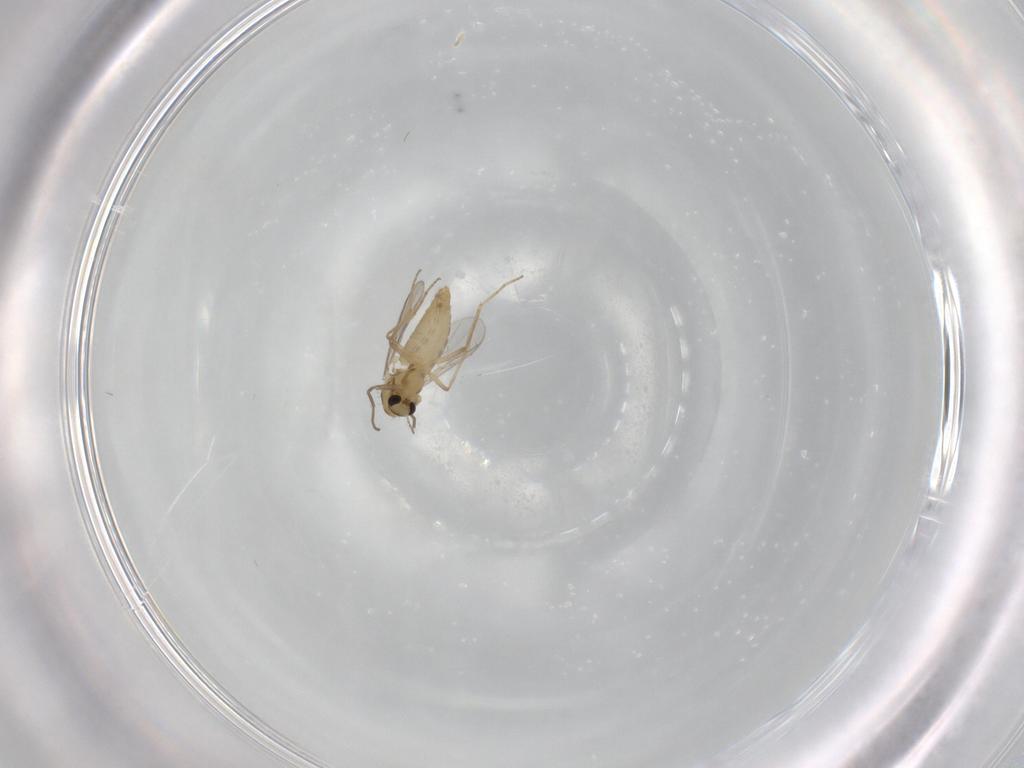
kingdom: Animalia
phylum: Arthropoda
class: Insecta
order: Diptera
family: Chironomidae
